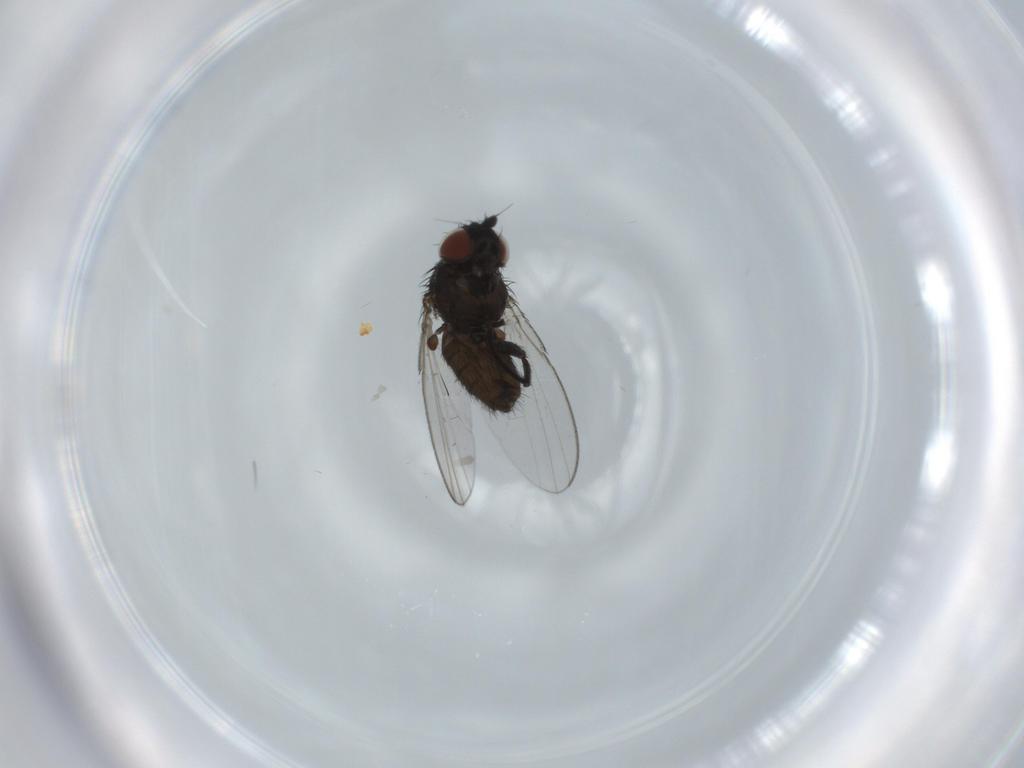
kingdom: Animalia
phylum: Arthropoda
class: Insecta
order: Diptera
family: Milichiidae
